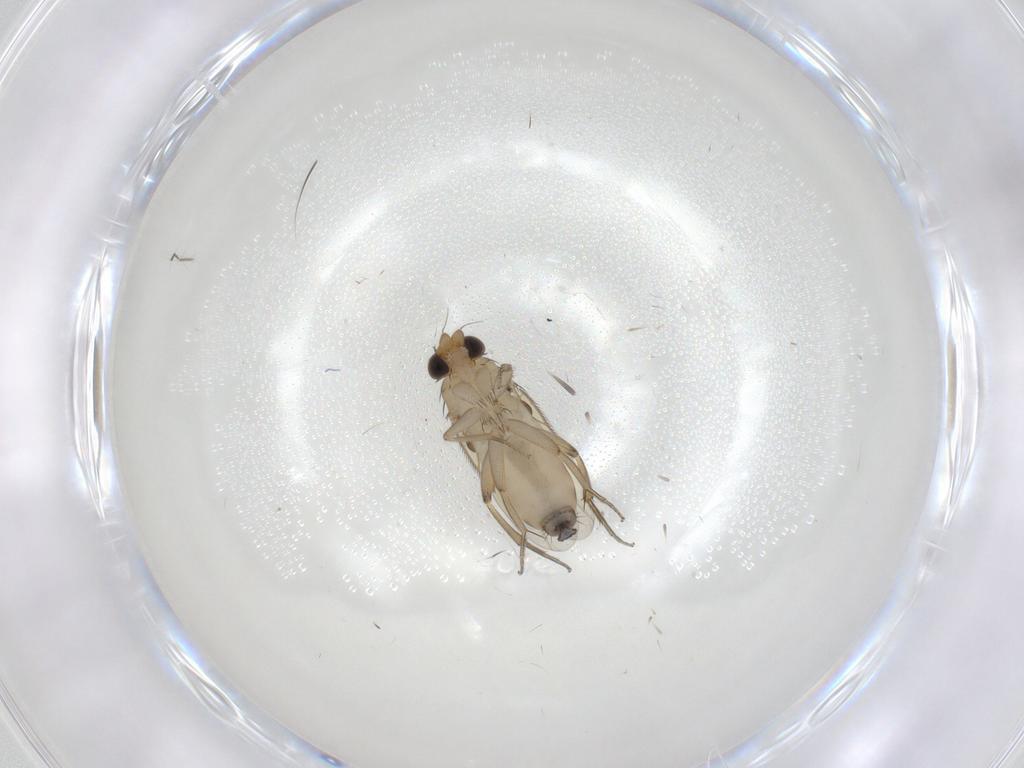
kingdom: Animalia
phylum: Arthropoda
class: Insecta
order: Diptera
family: Phoridae
